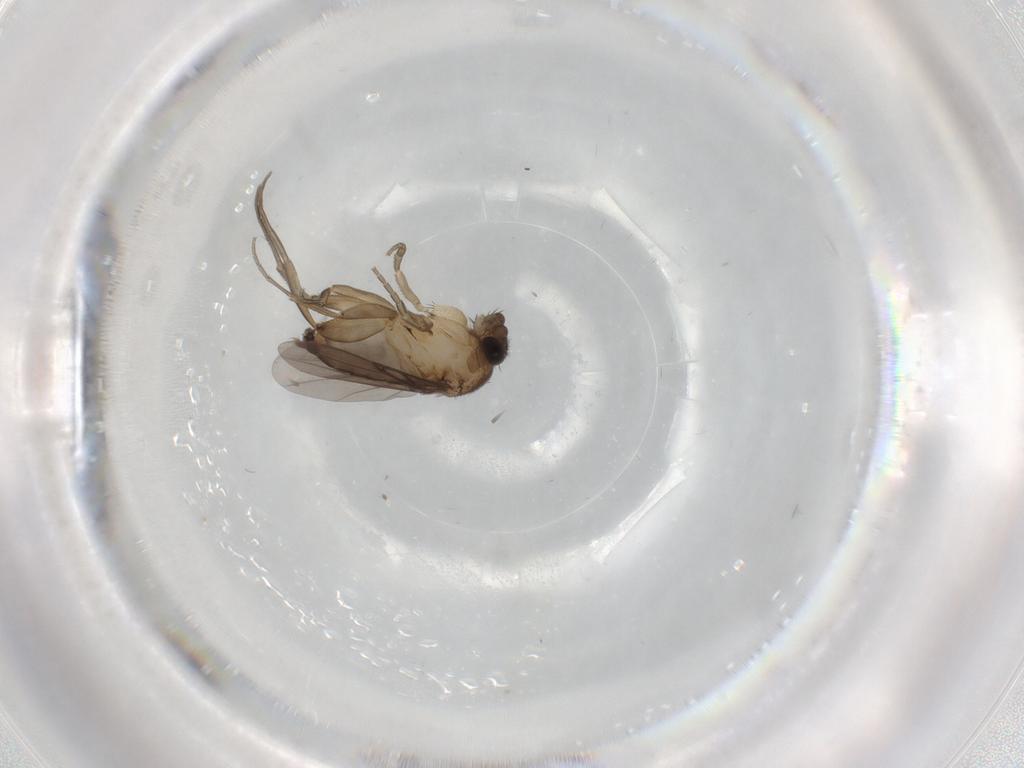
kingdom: Animalia
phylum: Arthropoda
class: Insecta
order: Diptera
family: Phoridae
